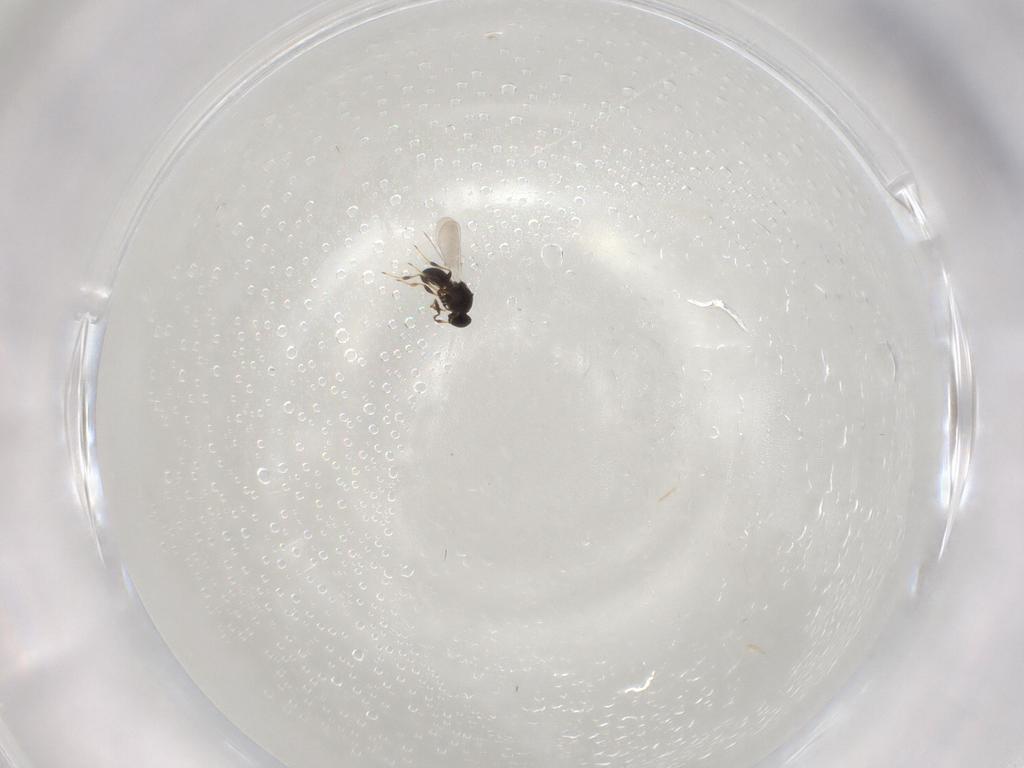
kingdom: Animalia
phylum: Arthropoda
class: Insecta
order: Hymenoptera
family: Platygastridae
